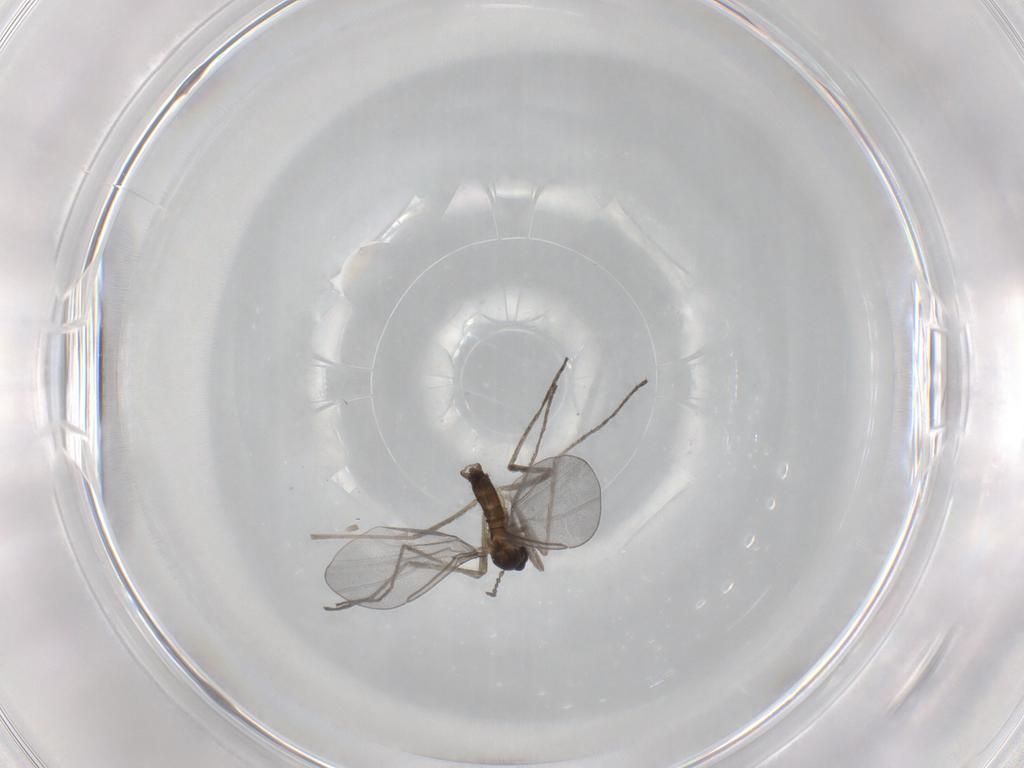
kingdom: Animalia
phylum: Arthropoda
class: Insecta
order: Diptera
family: Cecidomyiidae
